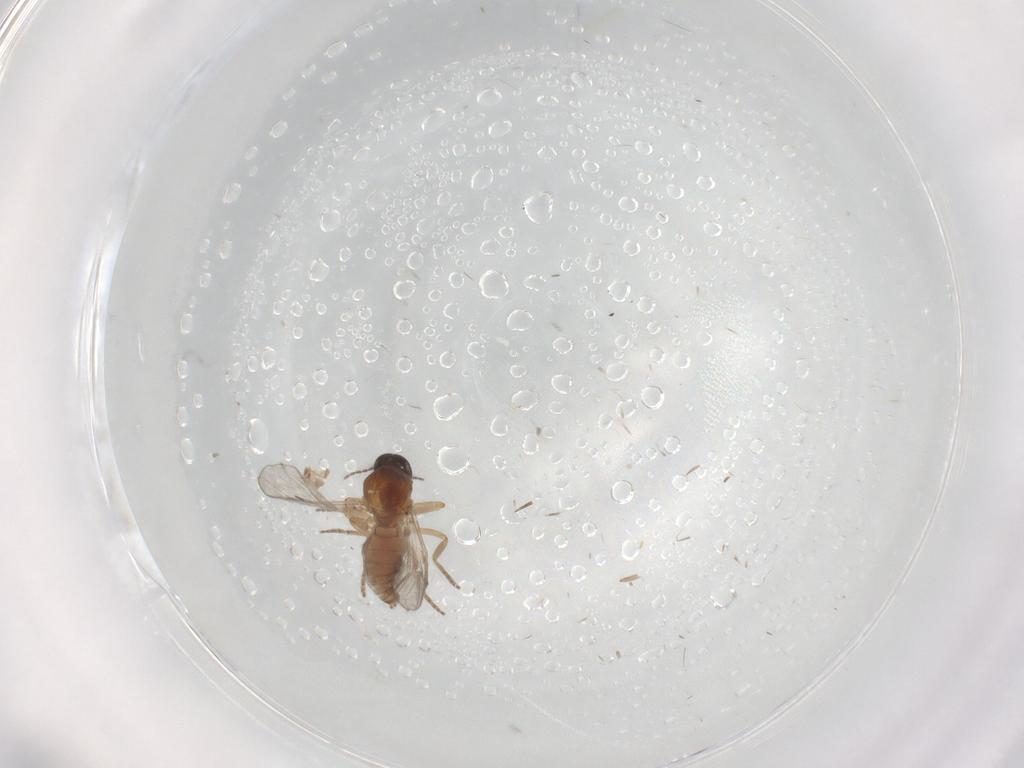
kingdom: Animalia
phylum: Arthropoda
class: Insecta
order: Diptera
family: Ceratopogonidae
